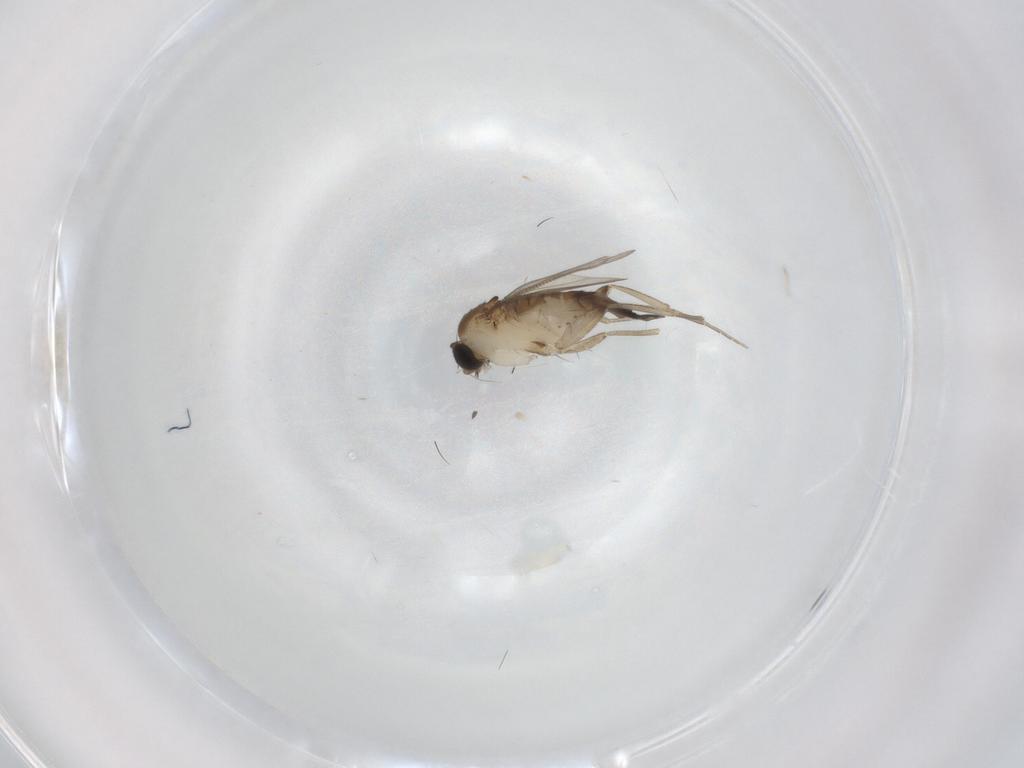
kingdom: Animalia
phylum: Arthropoda
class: Insecta
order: Diptera
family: Phoridae
